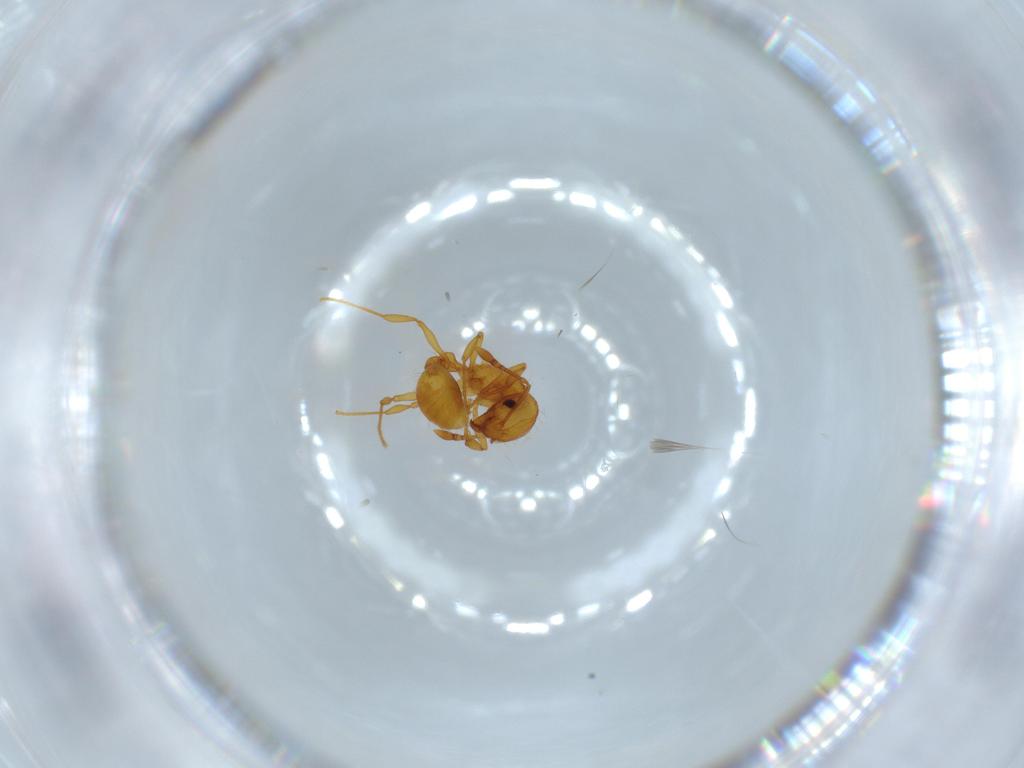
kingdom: Animalia
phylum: Arthropoda
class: Insecta
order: Hymenoptera
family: Formicidae
